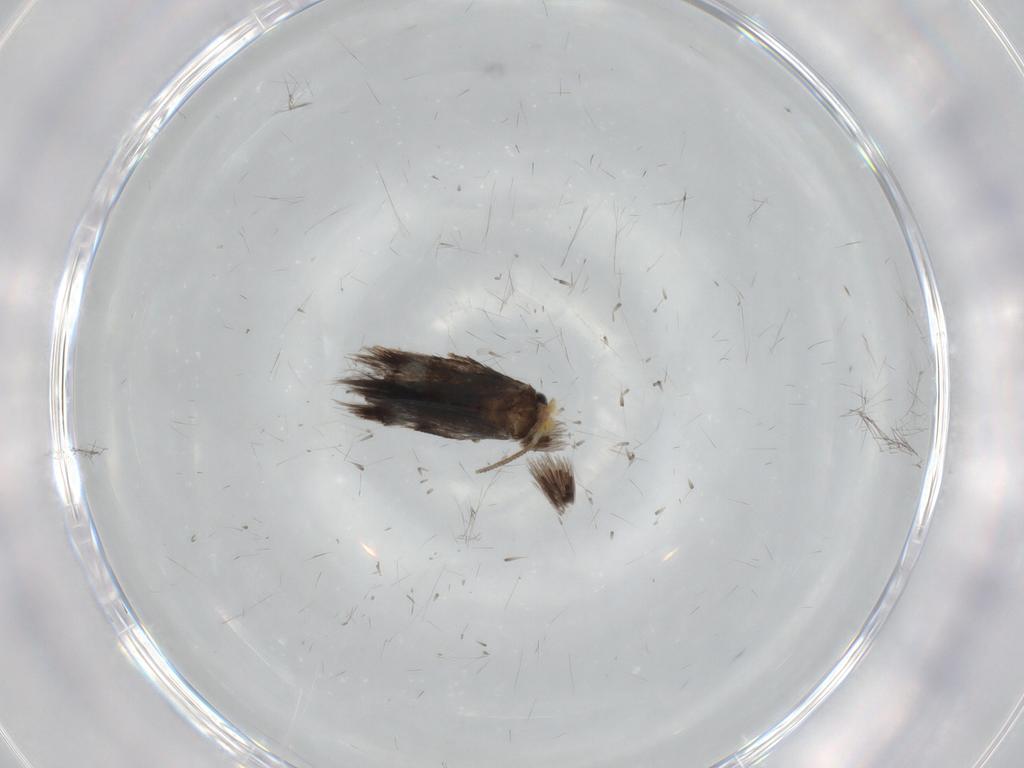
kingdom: Animalia
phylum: Arthropoda
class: Insecta
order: Lepidoptera
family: Nepticulidae
